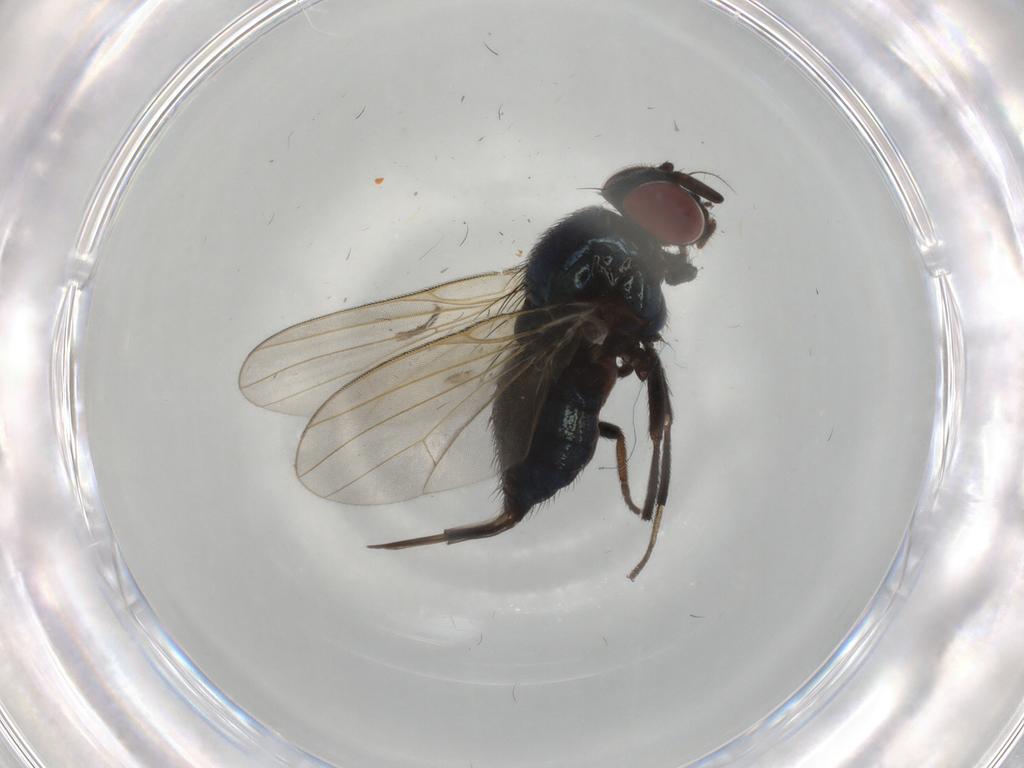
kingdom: Animalia
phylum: Arthropoda
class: Insecta
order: Diptera
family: Lonchaeidae
